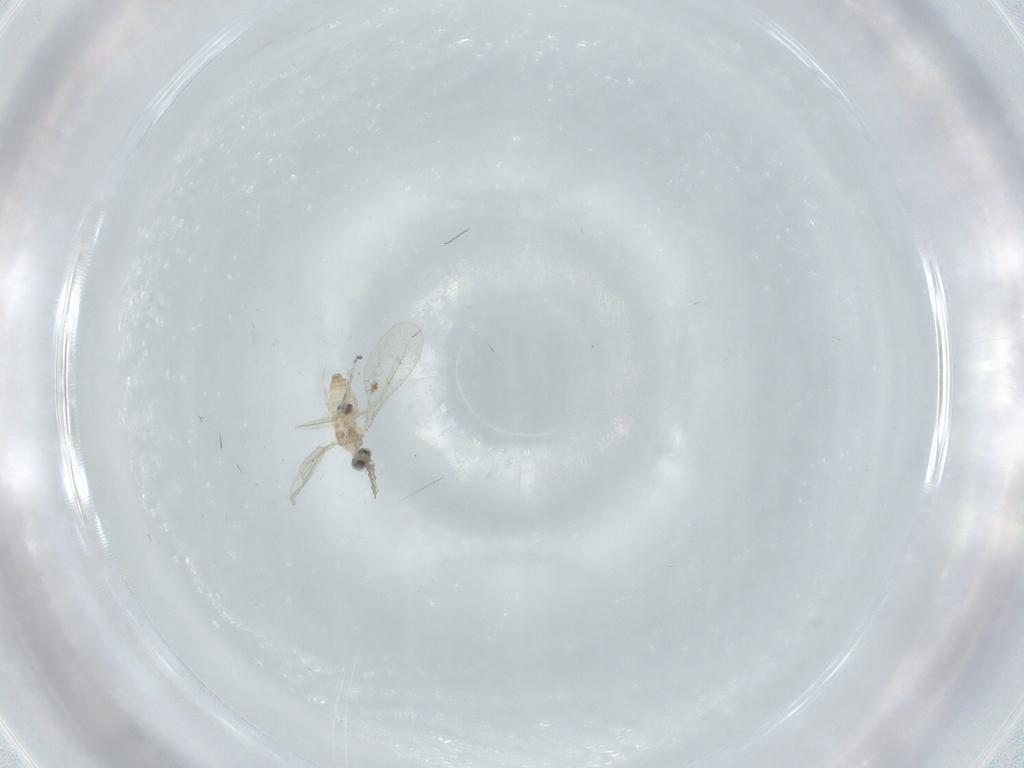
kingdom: Animalia
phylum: Arthropoda
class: Insecta
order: Diptera
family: Cecidomyiidae
